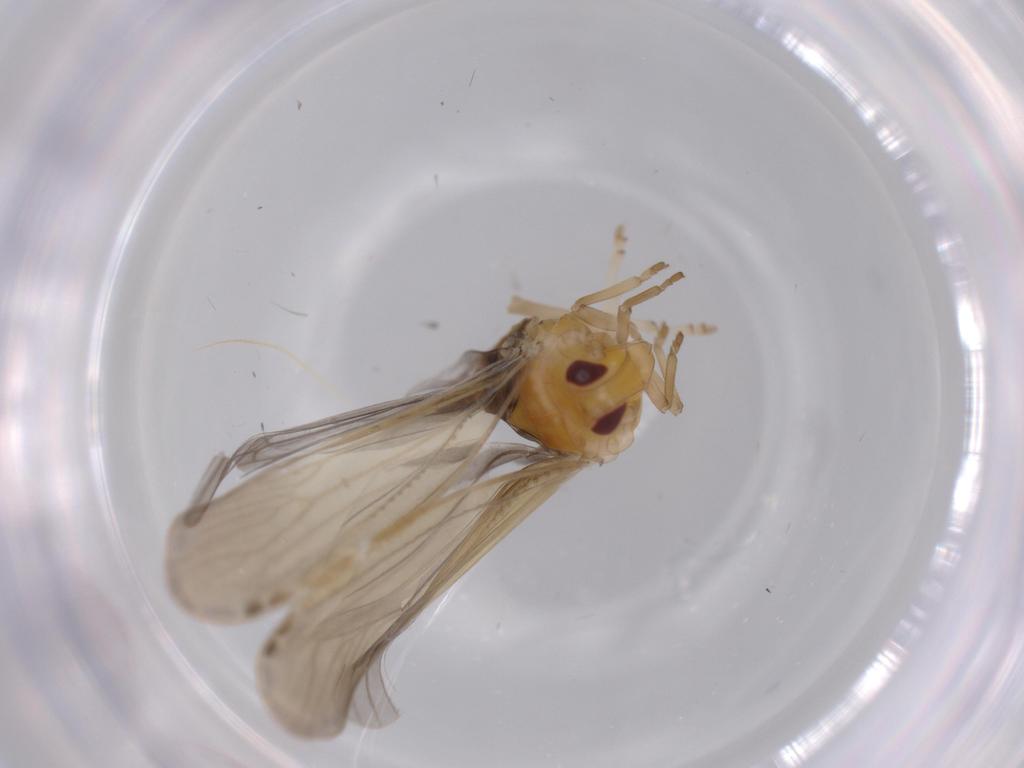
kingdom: Animalia
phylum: Arthropoda
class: Insecta
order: Hemiptera
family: Derbidae
